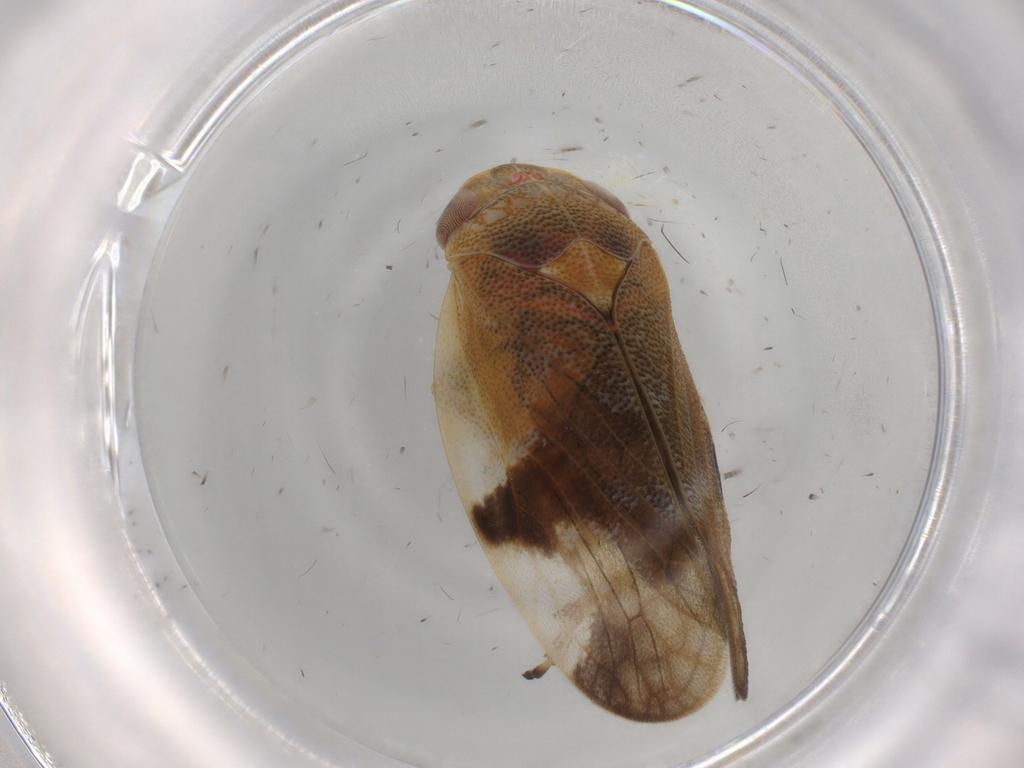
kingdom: Animalia
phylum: Arthropoda
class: Insecta
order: Hemiptera
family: Aphrophoridae
